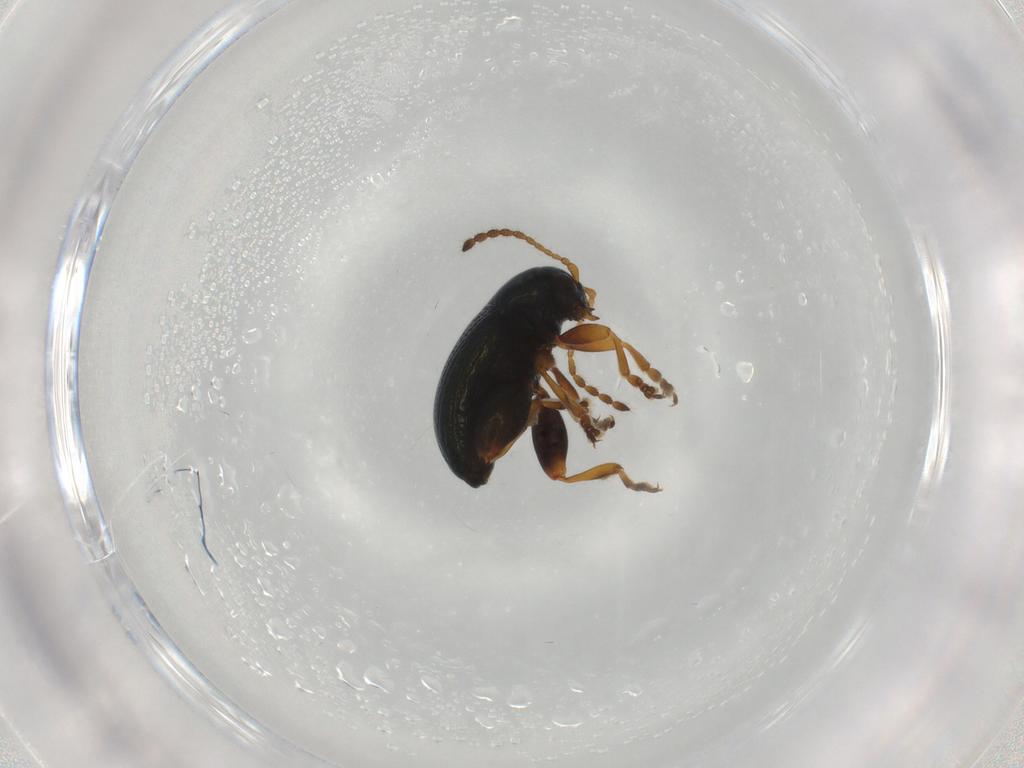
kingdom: Animalia
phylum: Arthropoda
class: Insecta
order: Coleoptera
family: Chrysomelidae
